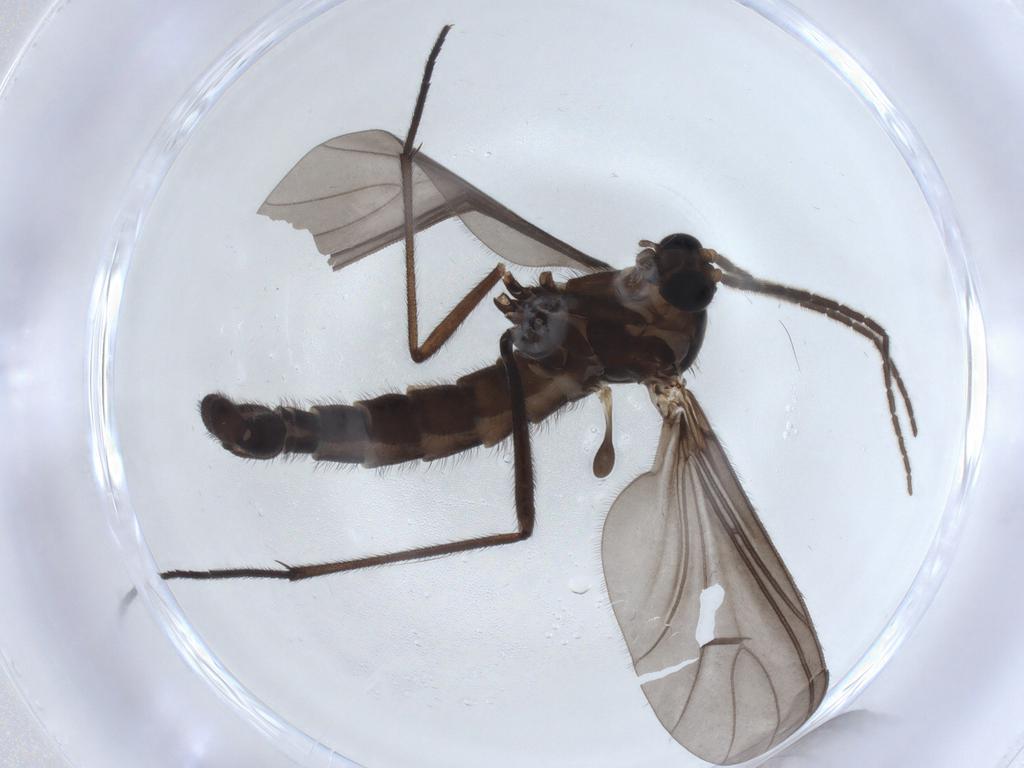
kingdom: Animalia
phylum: Arthropoda
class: Insecta
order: Diptera
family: Sciaridae
